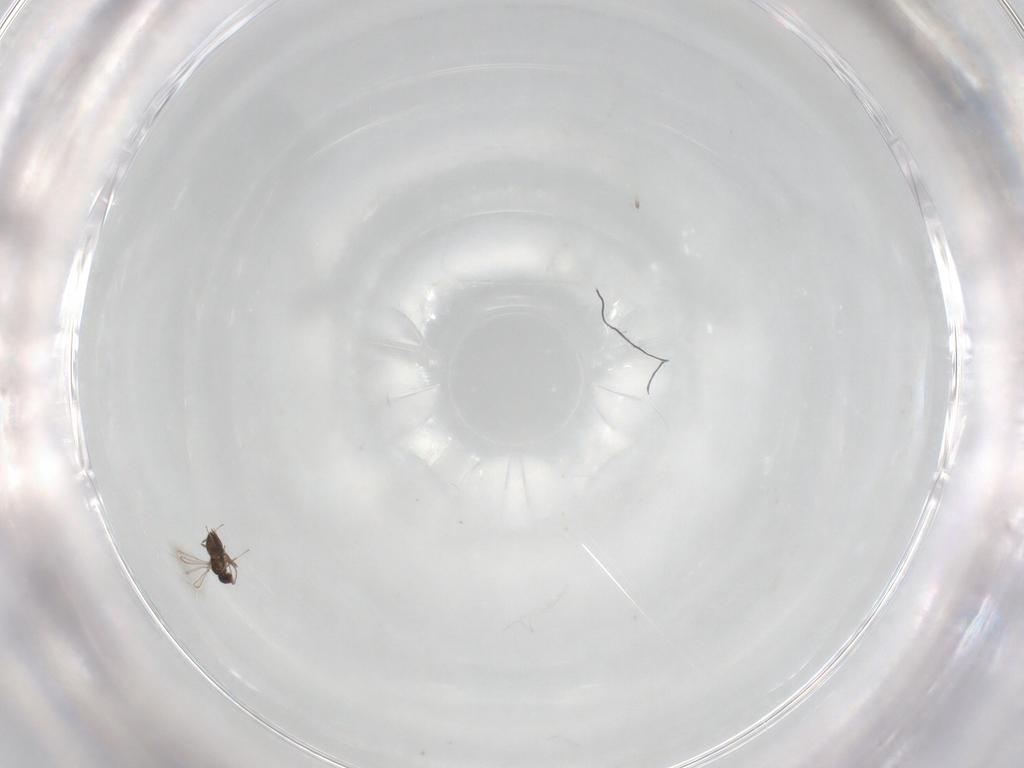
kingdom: Animalia
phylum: Arthropoda
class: Insecta
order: Hymenoptera
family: Mymaridae
